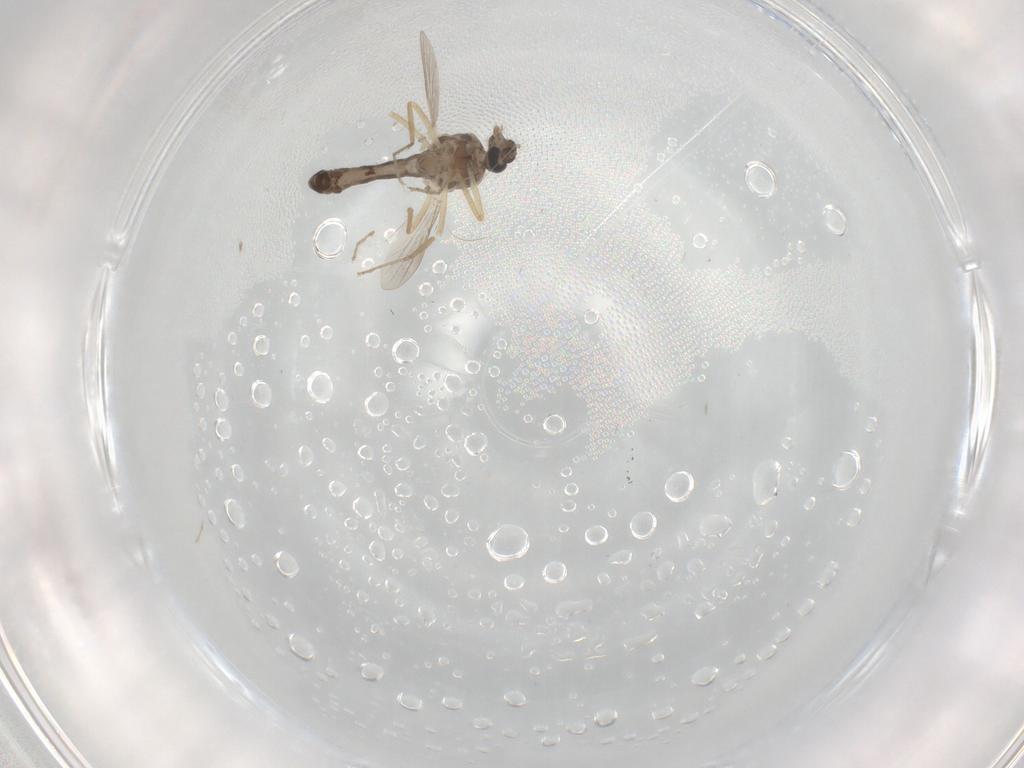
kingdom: Animalia
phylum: Arthropoda
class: Insecta
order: Diptera
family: Ceratopogonidae
